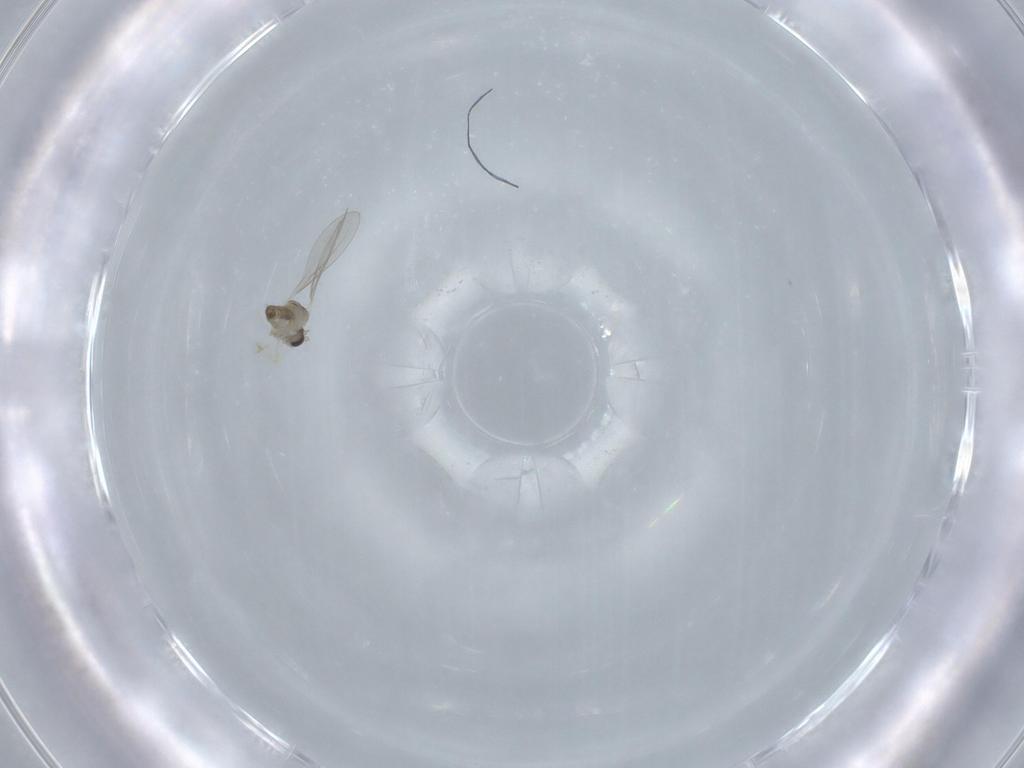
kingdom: Animalia
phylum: Arthropoda
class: Insecta
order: Diptera
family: Cecidomyiidae
